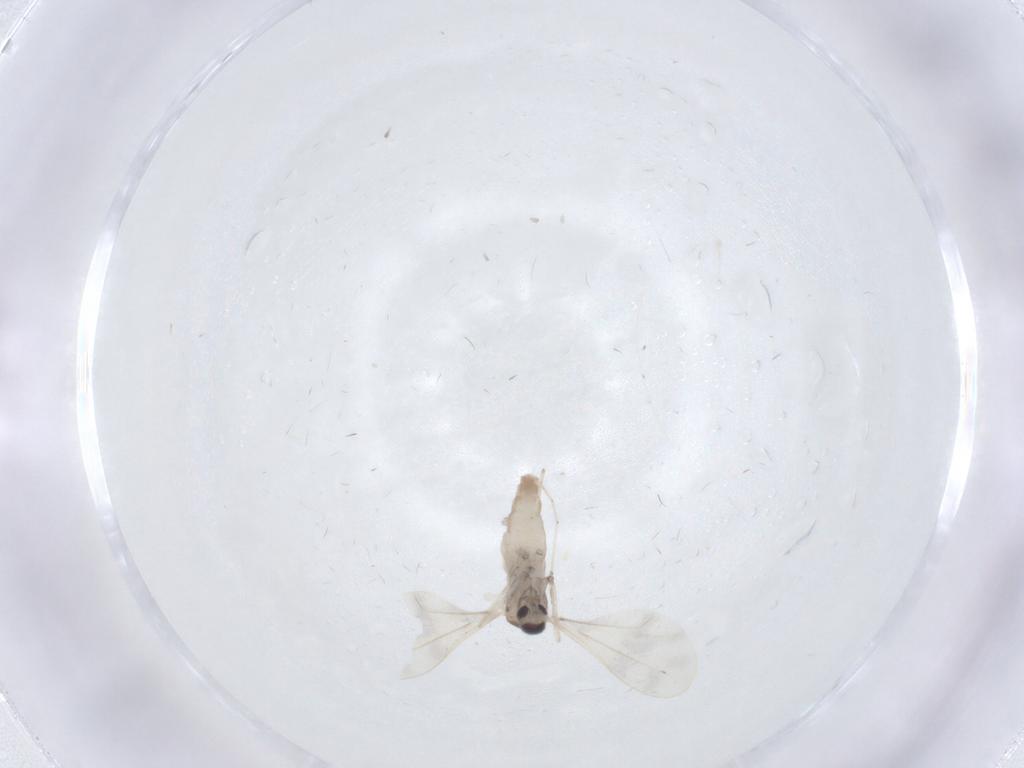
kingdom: Animalia
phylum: Arthropoda
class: Insecta
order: Diptera
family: Cecidomyiidae
